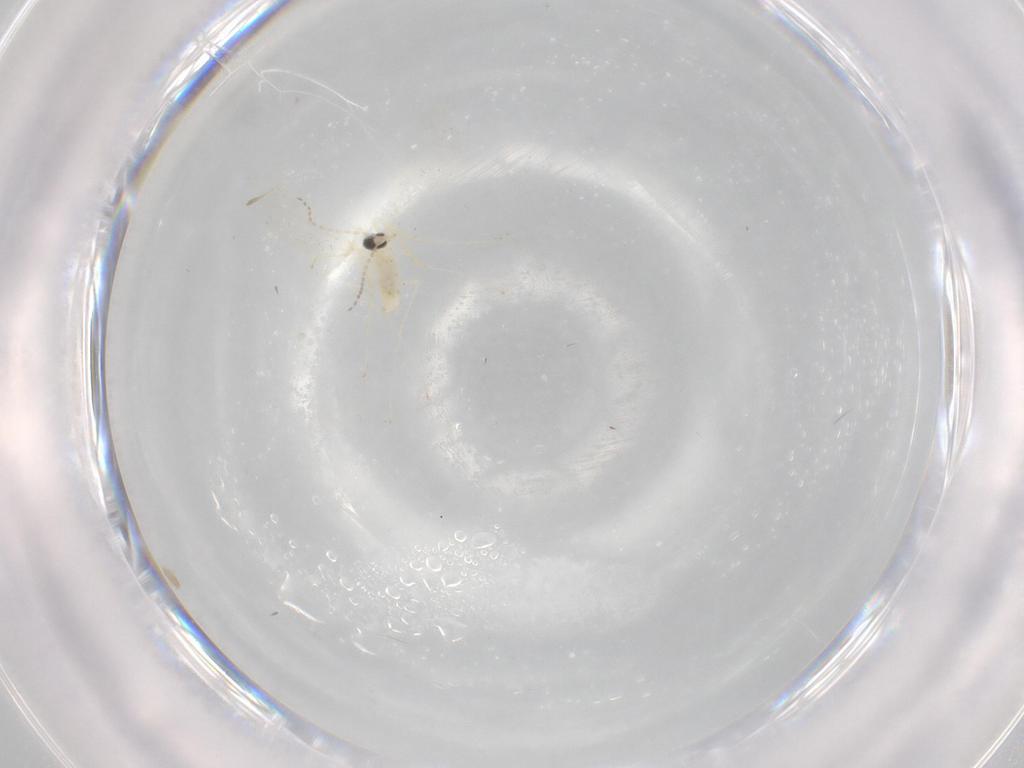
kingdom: Animalia
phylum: Arthropoda
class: Insecta
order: Diptera
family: Cecidomyiidae
